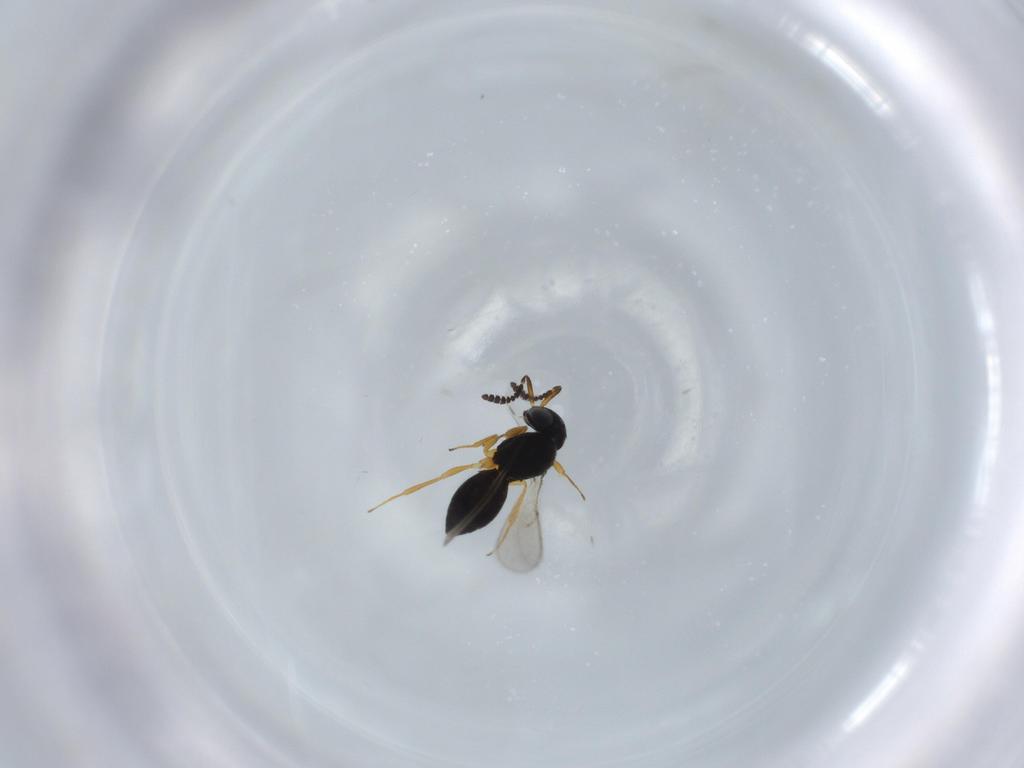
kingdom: Animalia
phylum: Arthropoda
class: Insecta
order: Hymenoptera
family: Scelionidae
